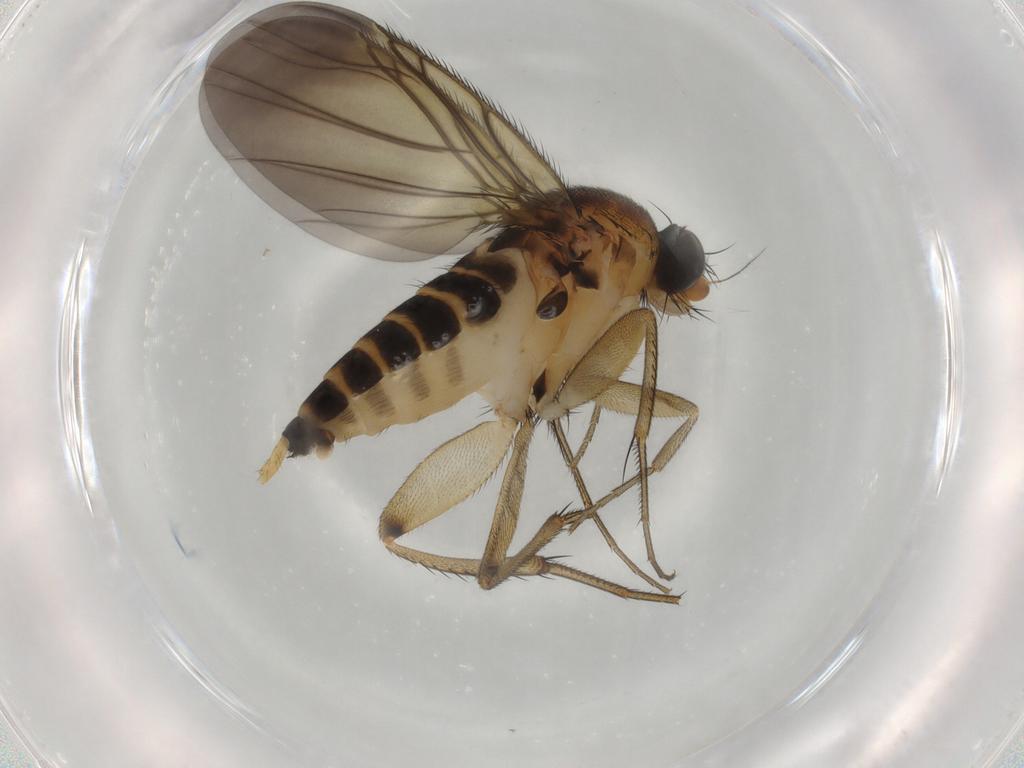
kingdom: Animalia
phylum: Arthropoda
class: Insecta
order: Diptera
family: Phoridae
